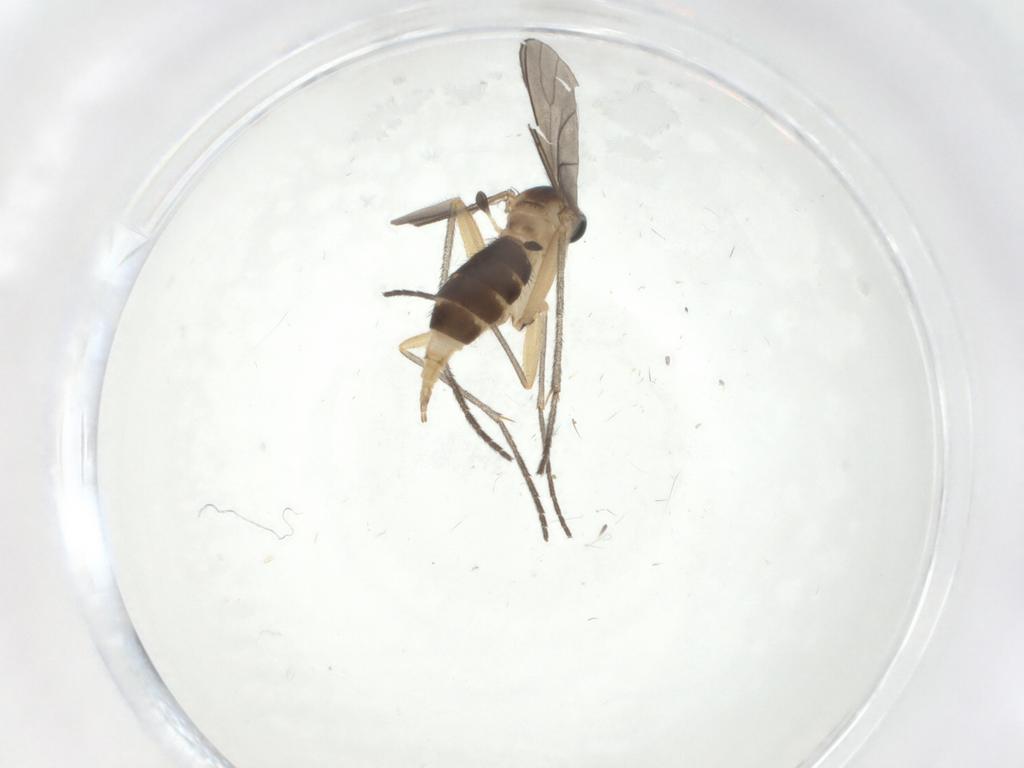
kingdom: Animalia
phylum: Arthropoda
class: Insecta
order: Diptera
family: Sciaridae
